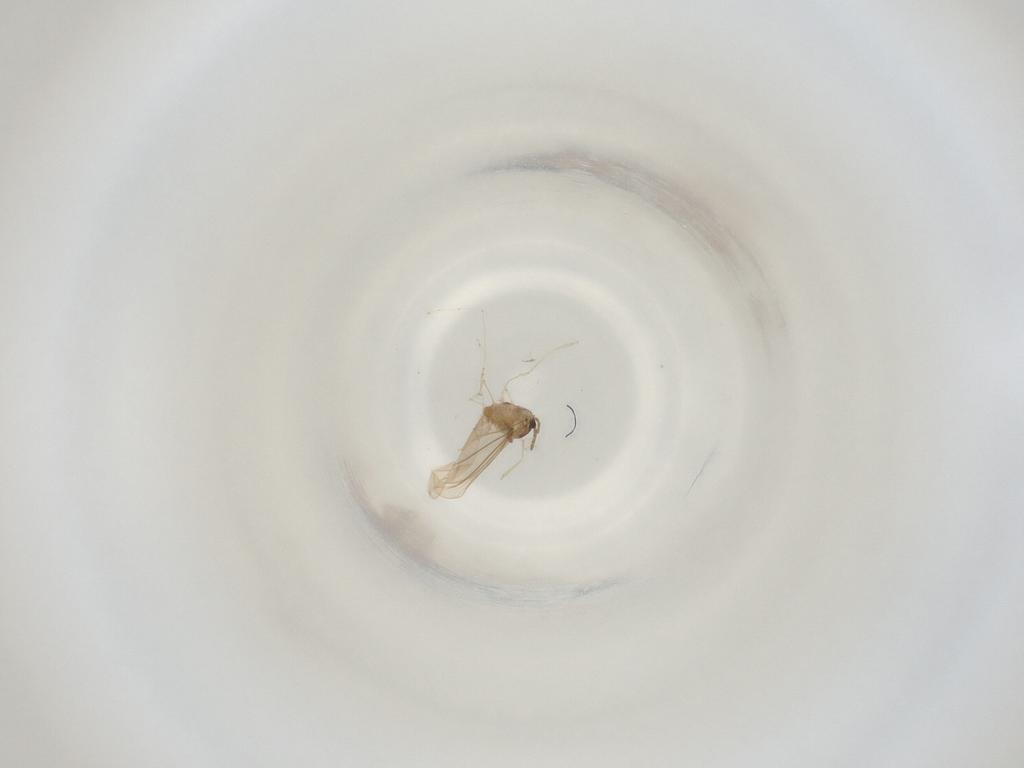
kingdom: Animalia
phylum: Arthropoda
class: Insecta
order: Diptera
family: Cecidomyiidae
